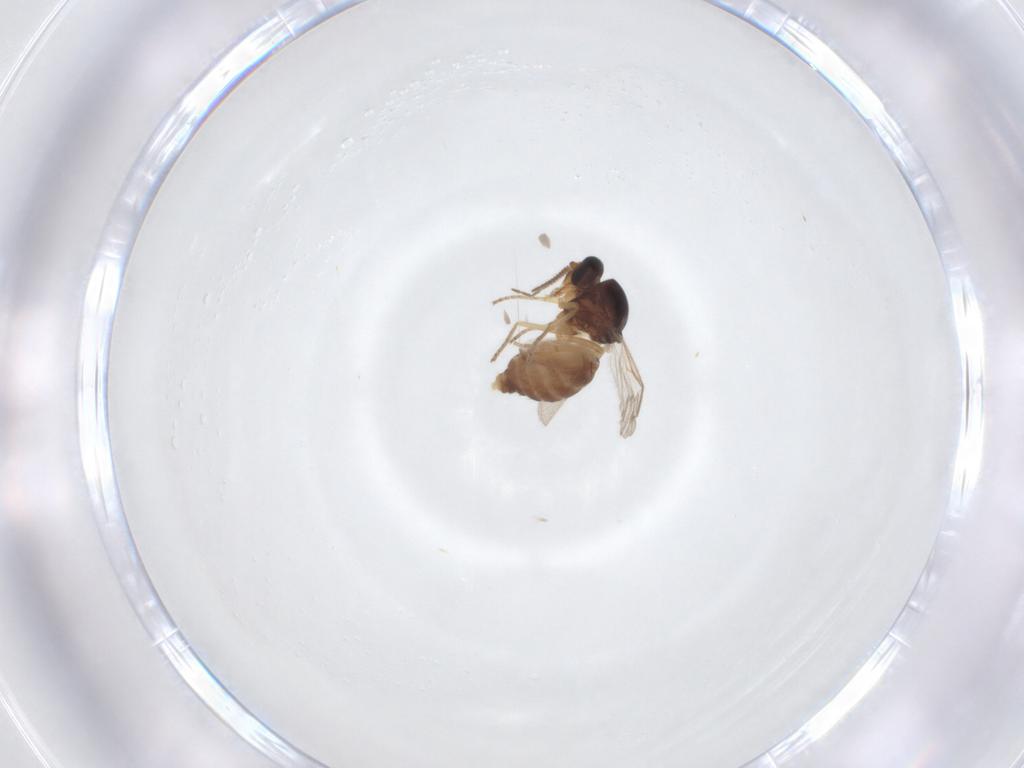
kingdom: Animalia
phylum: Arthropoda
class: Insecta
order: Diptera
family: Ceratopogonidae
